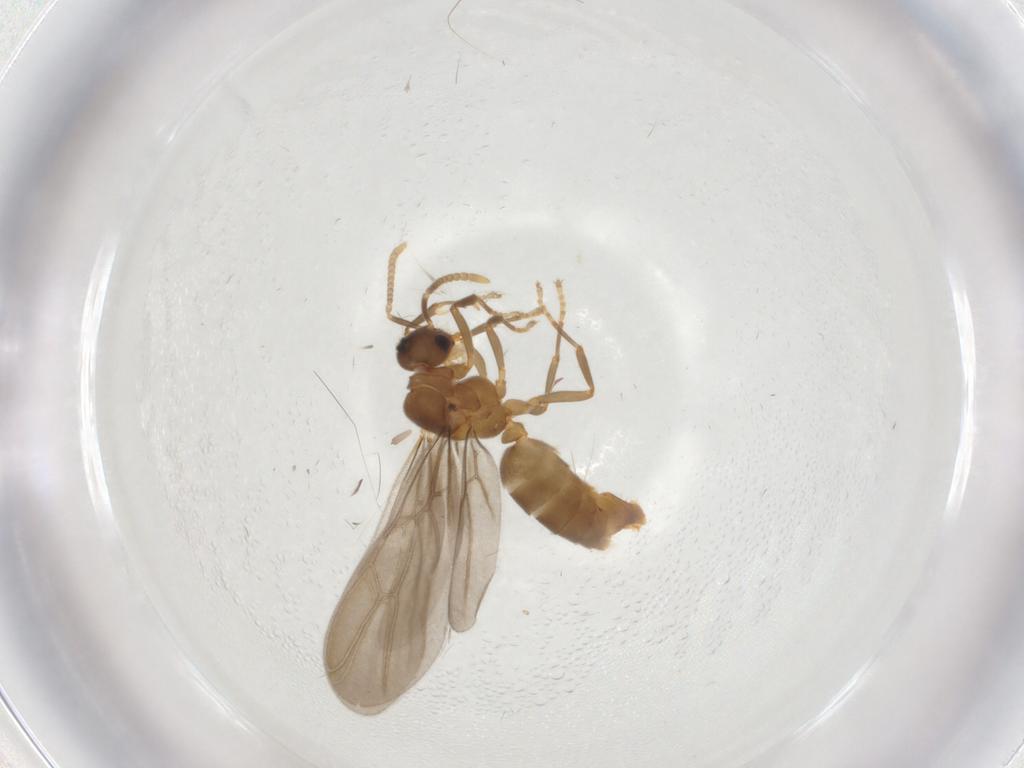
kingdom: Animalia
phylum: Arthropoda
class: Insecta
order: Hymenoptera
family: Formicidae
